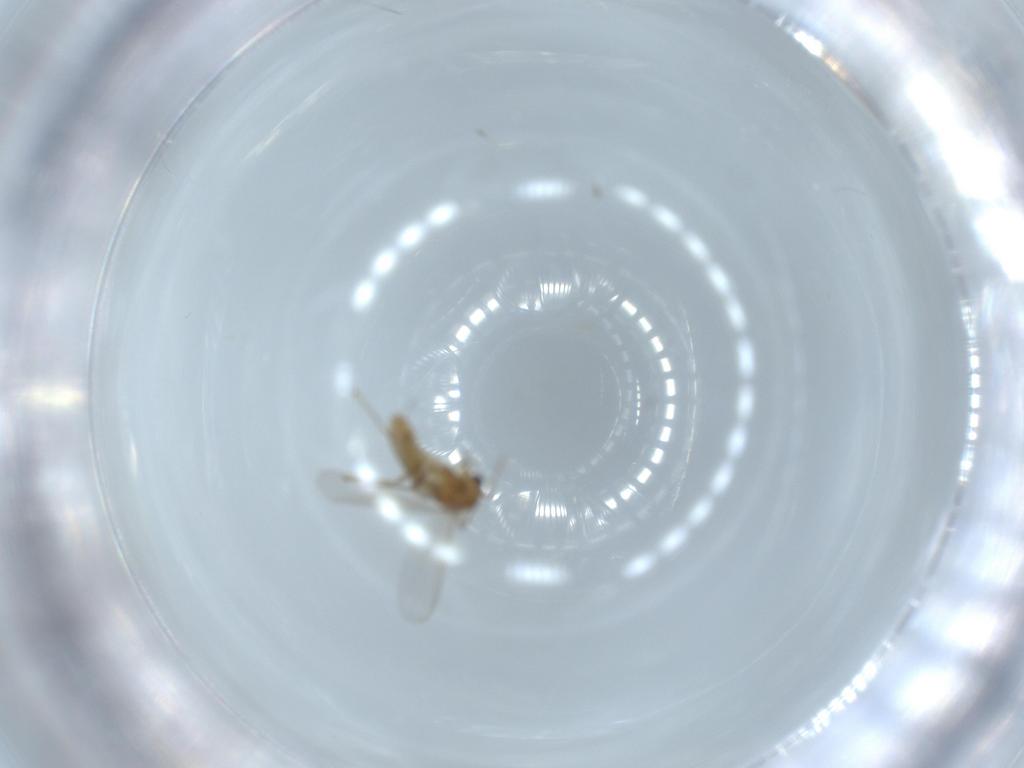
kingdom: Animalia
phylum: Arthropoda
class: Insecta
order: Diptera
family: Chironomidae
